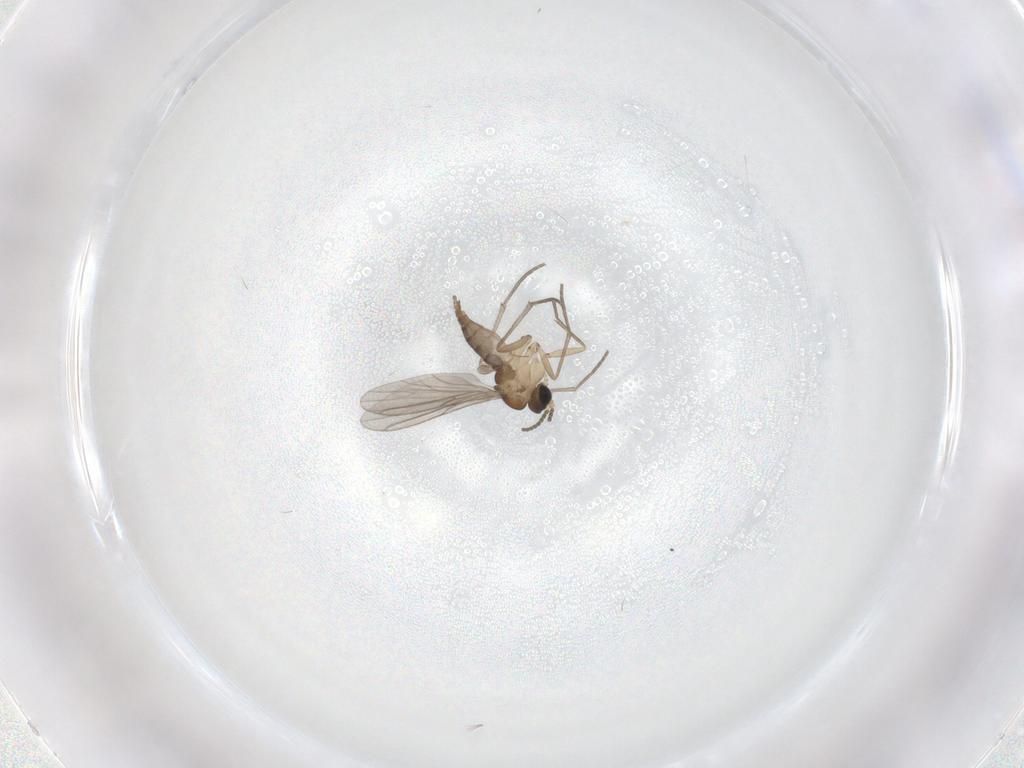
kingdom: Animalia
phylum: Arthropoda
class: Insecta
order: Diptera
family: Sciaridae
